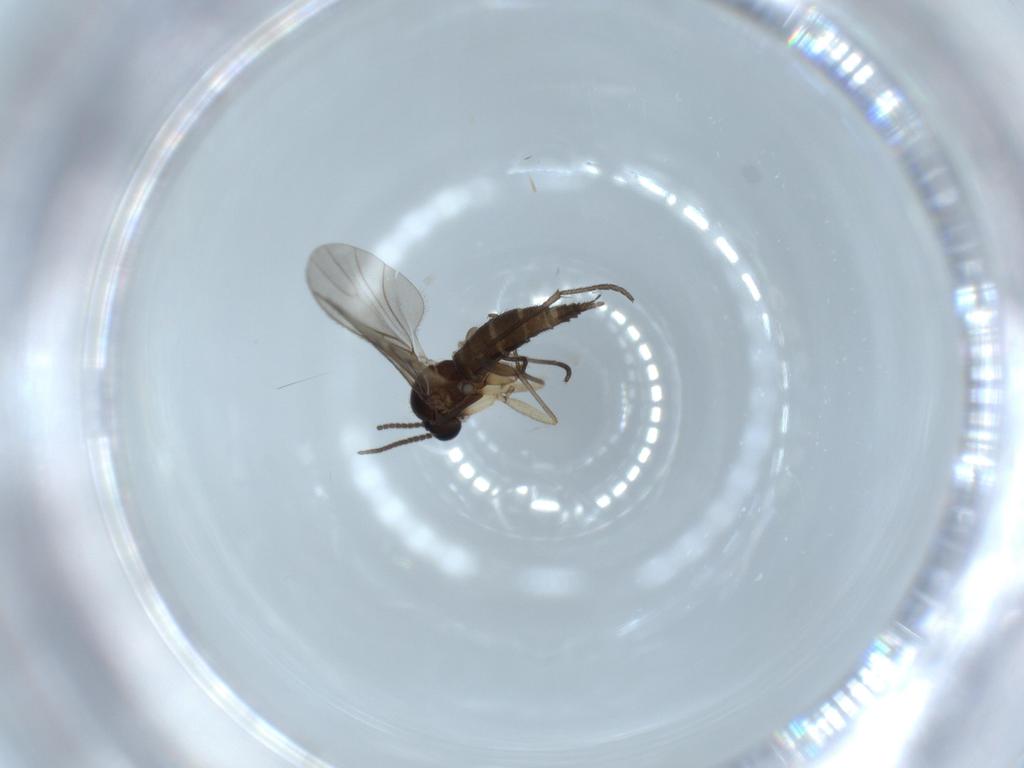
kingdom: Animalia
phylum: Arthropoda
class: Insecta
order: Diptera
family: Sciaridae
